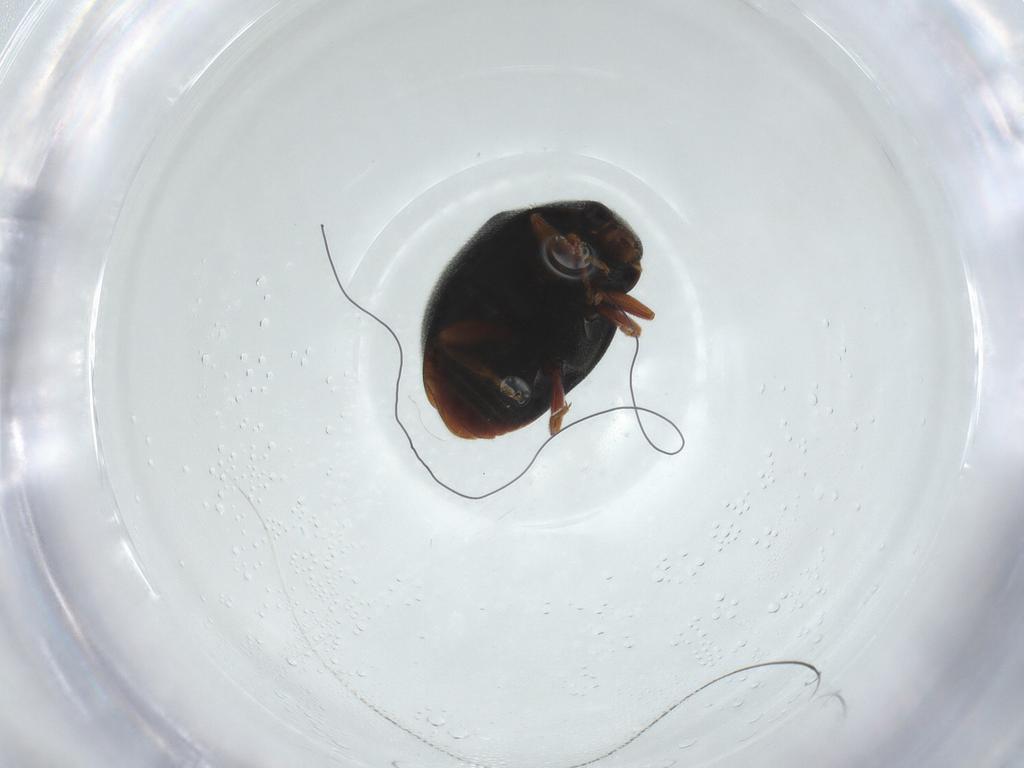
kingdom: Animalia
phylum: Arthropoda
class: Insecta
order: Coleoptera
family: Coccinellidae
